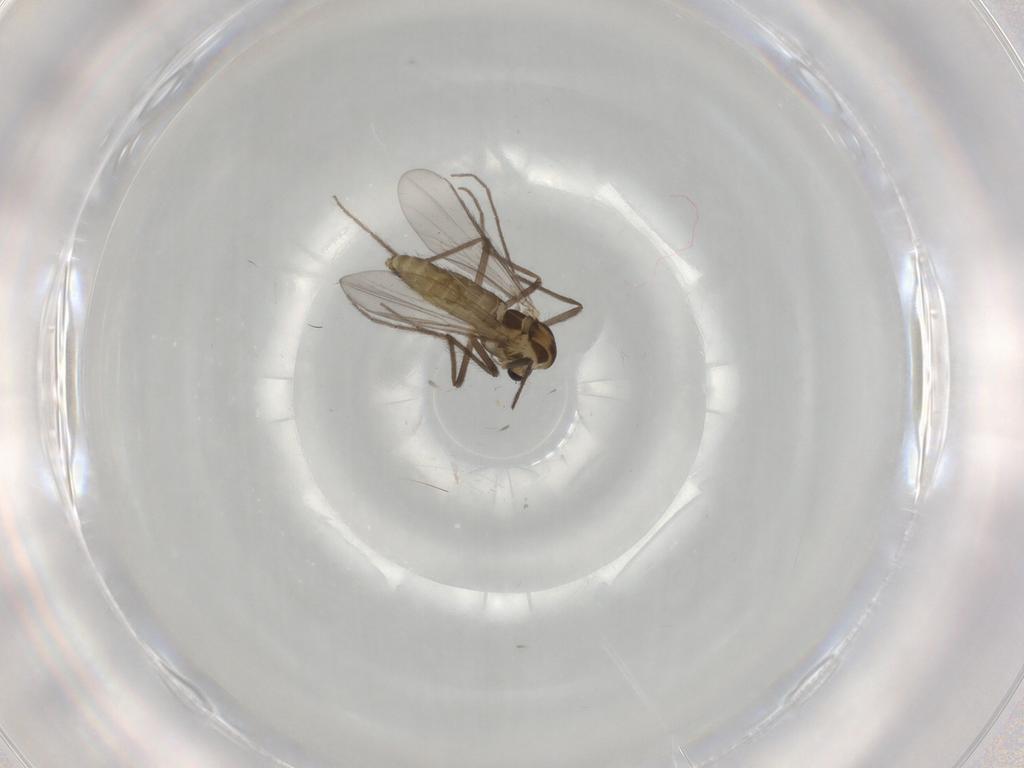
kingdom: Animalia
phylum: Arthropoda
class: Insecta
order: Diptera
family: Chironomidae
